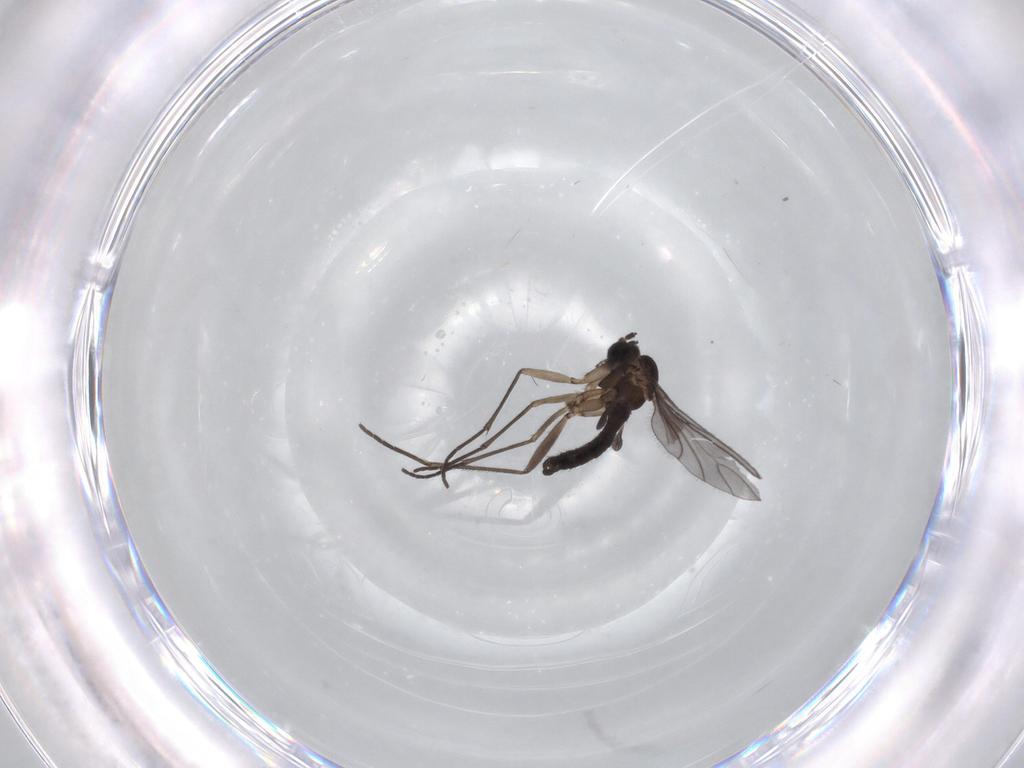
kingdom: Animalia
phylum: Arthropoda
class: Insecta
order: Diptera
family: Sciaridae
